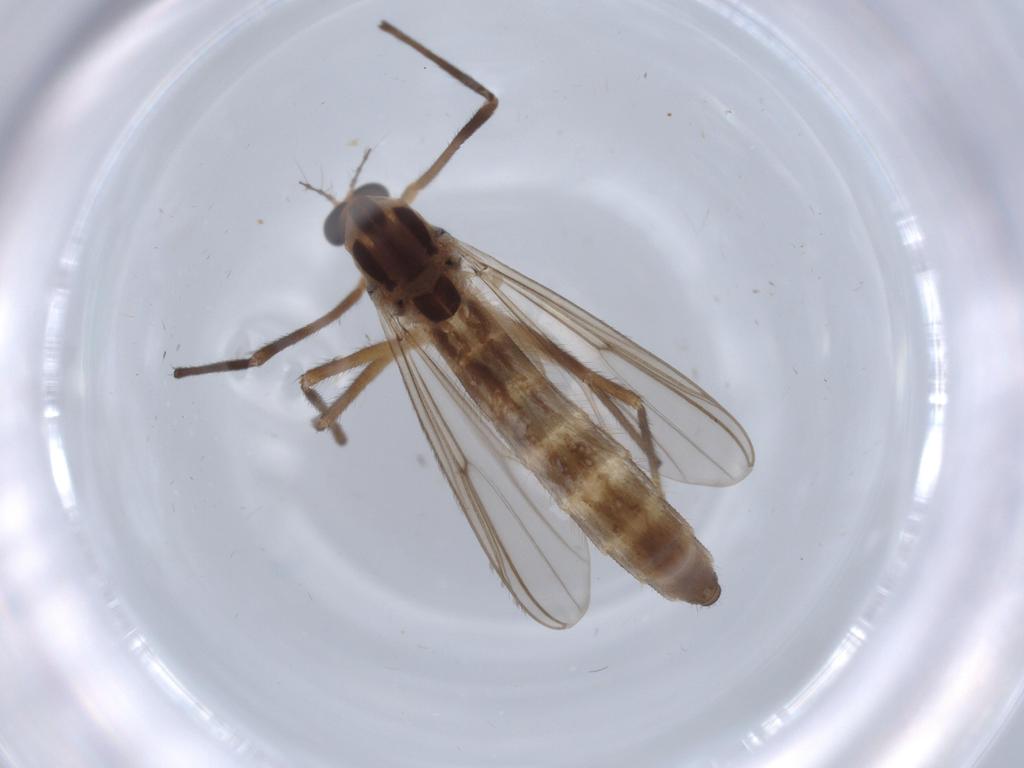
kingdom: Animalia
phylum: Arthropoda
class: Insecta
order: Diptera
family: Chironomidae
